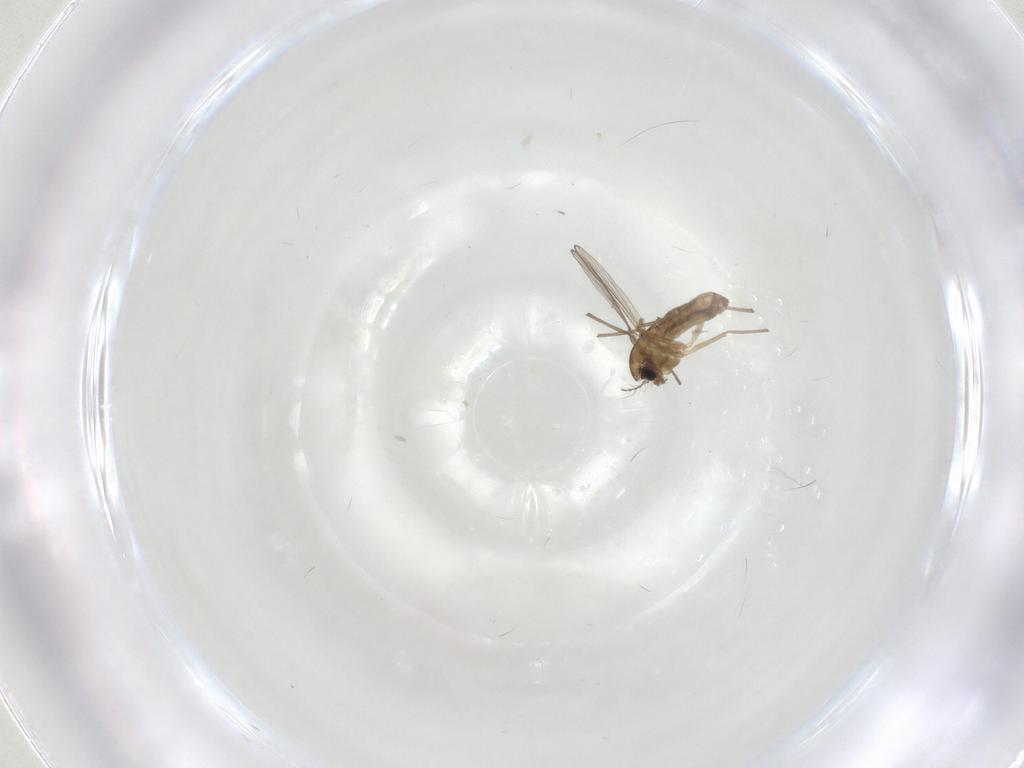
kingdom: Animalia
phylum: Arthropoda
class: Insecta
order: Diptera
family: Chironomidae
